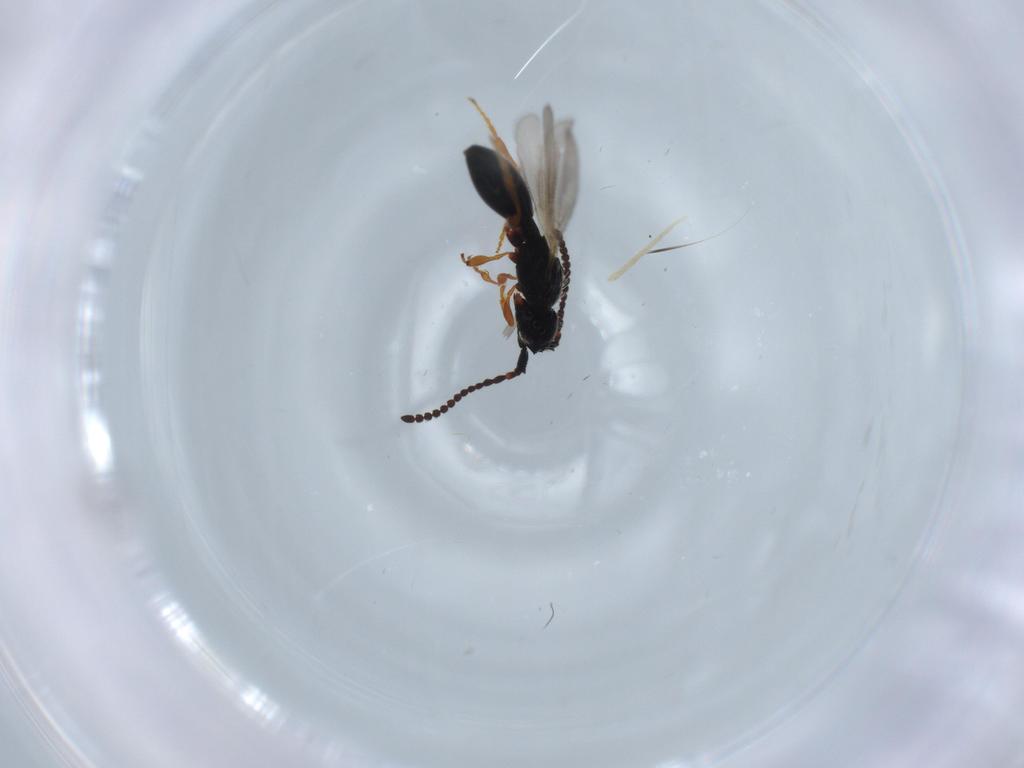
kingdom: Animalia
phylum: Arthropoda
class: Insecta
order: Hymenoptera
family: Diapriidae
